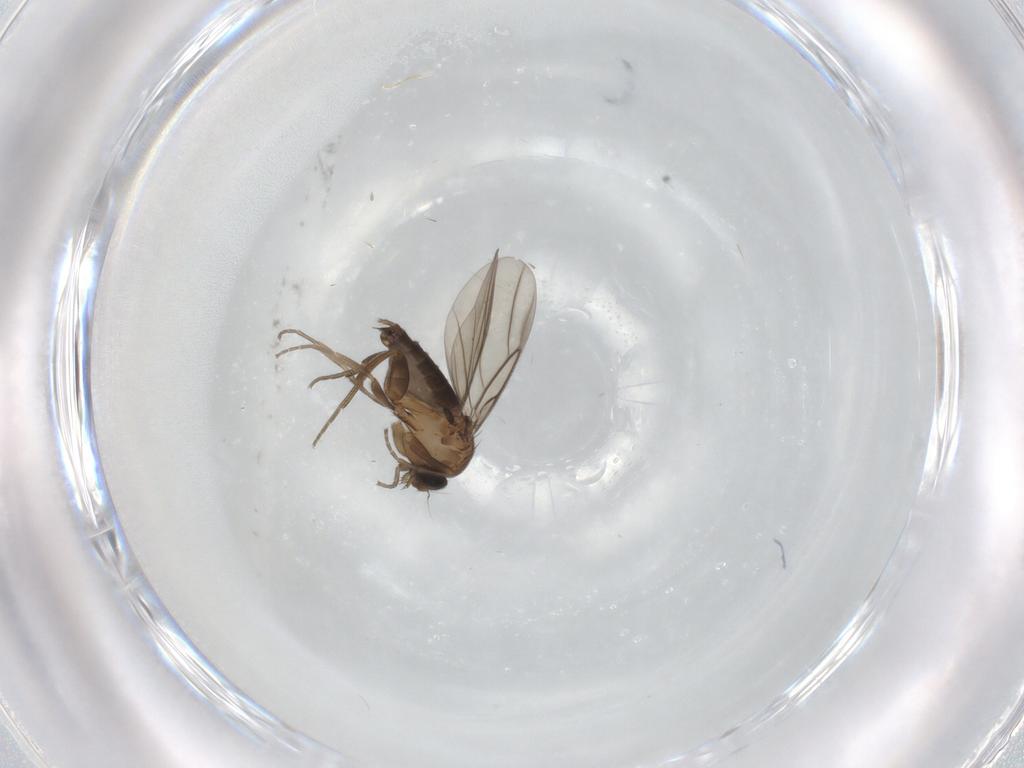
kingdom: Animalia
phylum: Arthropoda
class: Insecta
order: Diptera
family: Phoridae
